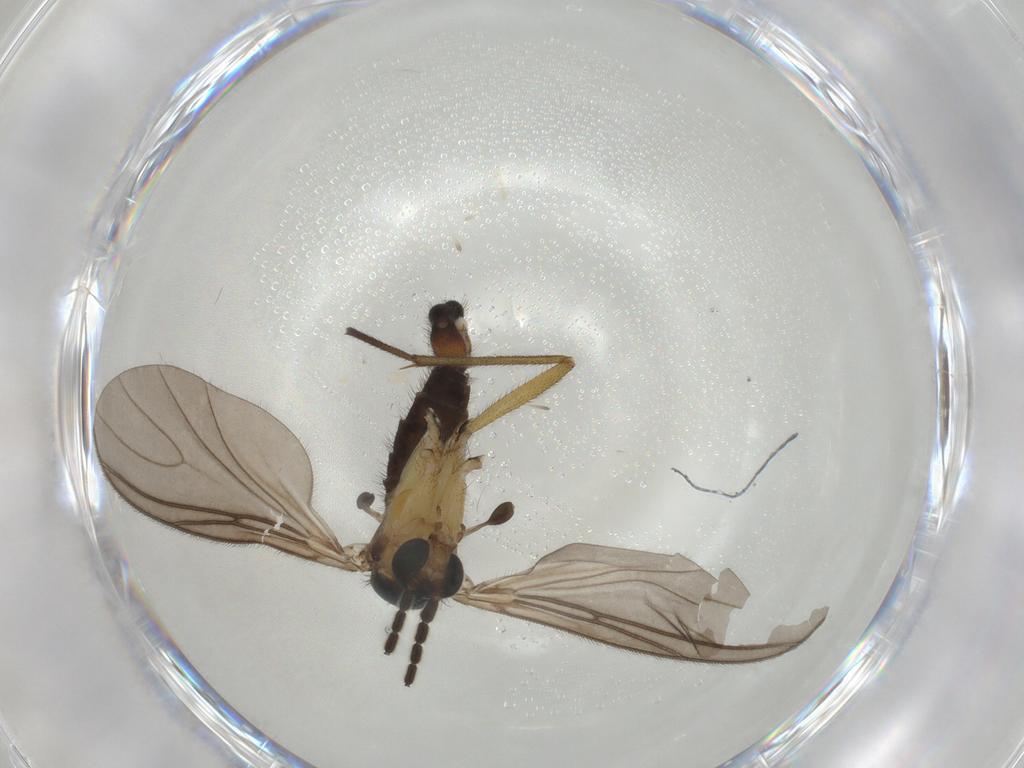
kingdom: Animalia
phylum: Arthropoda
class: Insecta
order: Diptera
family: Sciaridae
